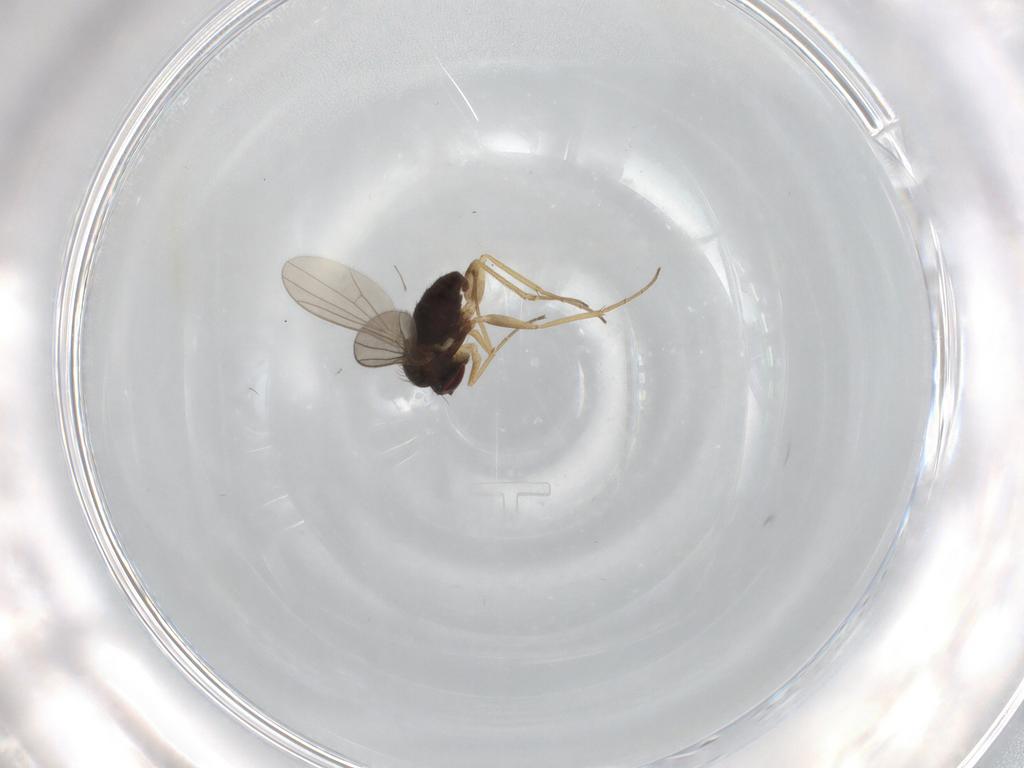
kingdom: Animalia
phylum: Arthropoda
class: Insecta
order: Diptera
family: Dolichopodidae
